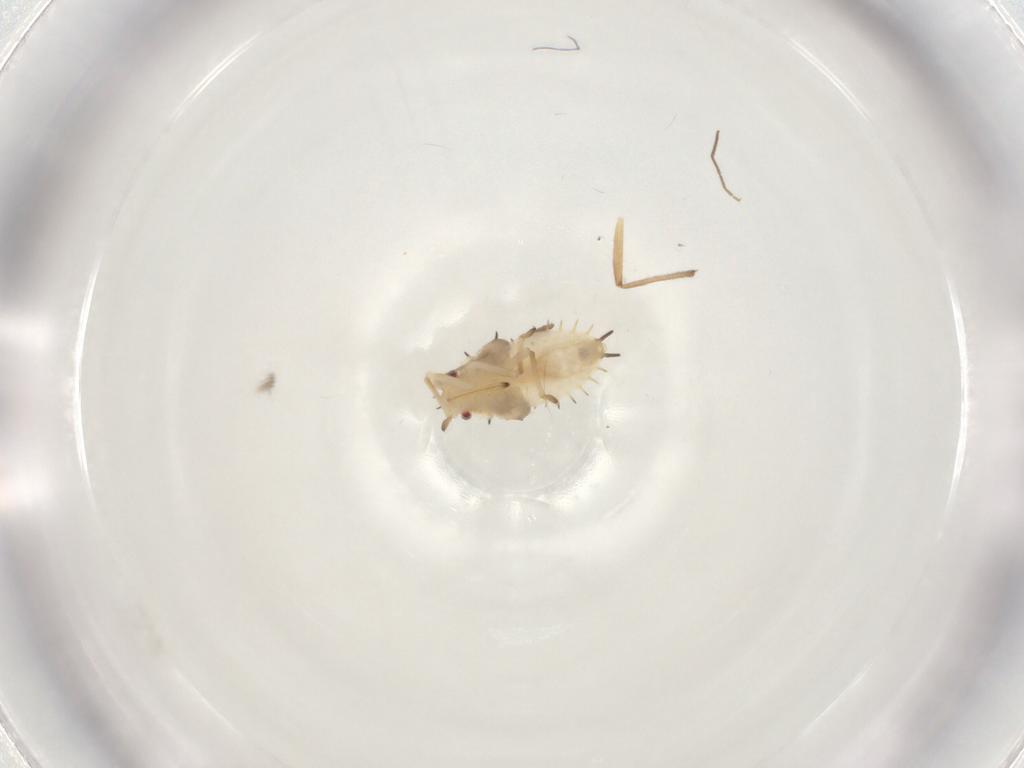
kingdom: Animalia
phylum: Arthropoda
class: Insecta
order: Hemiptera
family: Tingidae
